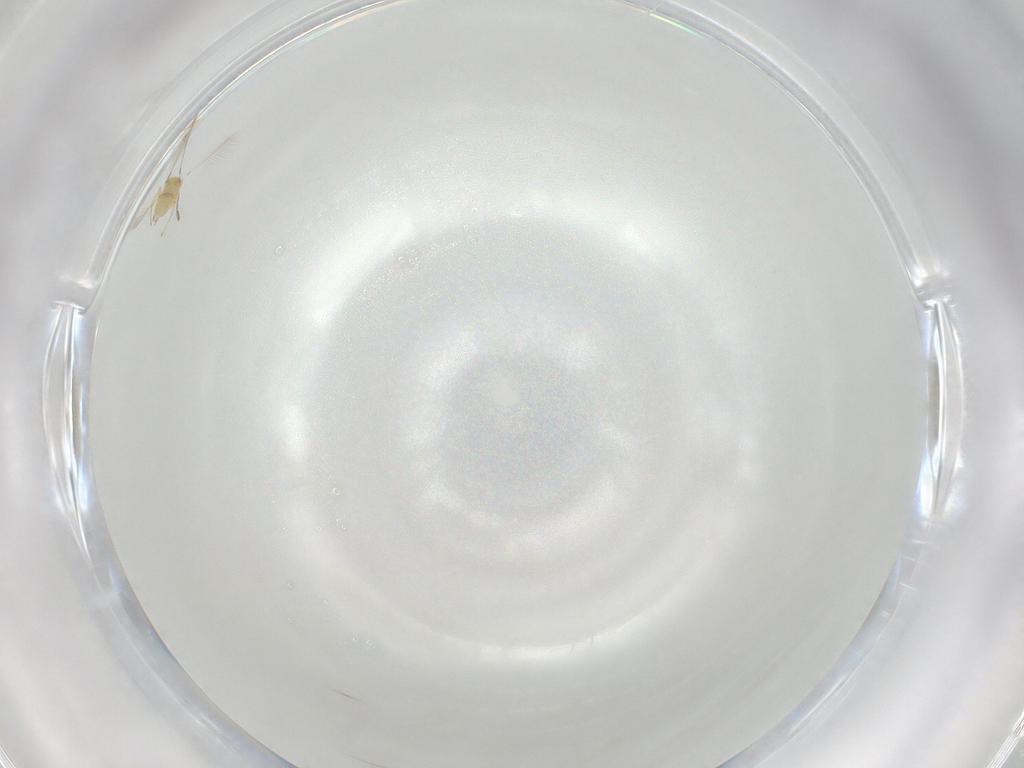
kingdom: Animalia
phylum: Arthropoda
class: Insecta
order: Hymenoptera
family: Mymaridae
